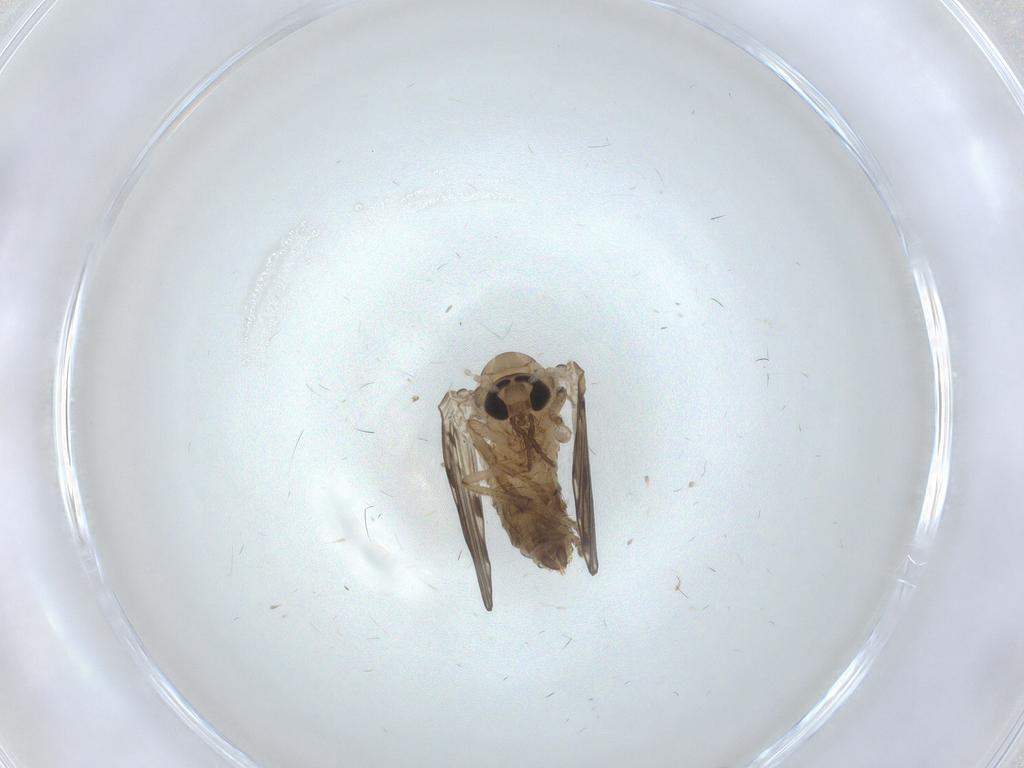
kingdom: Animalia
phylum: Arthropoda
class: Insecta
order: Diptera
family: Psychodidae
